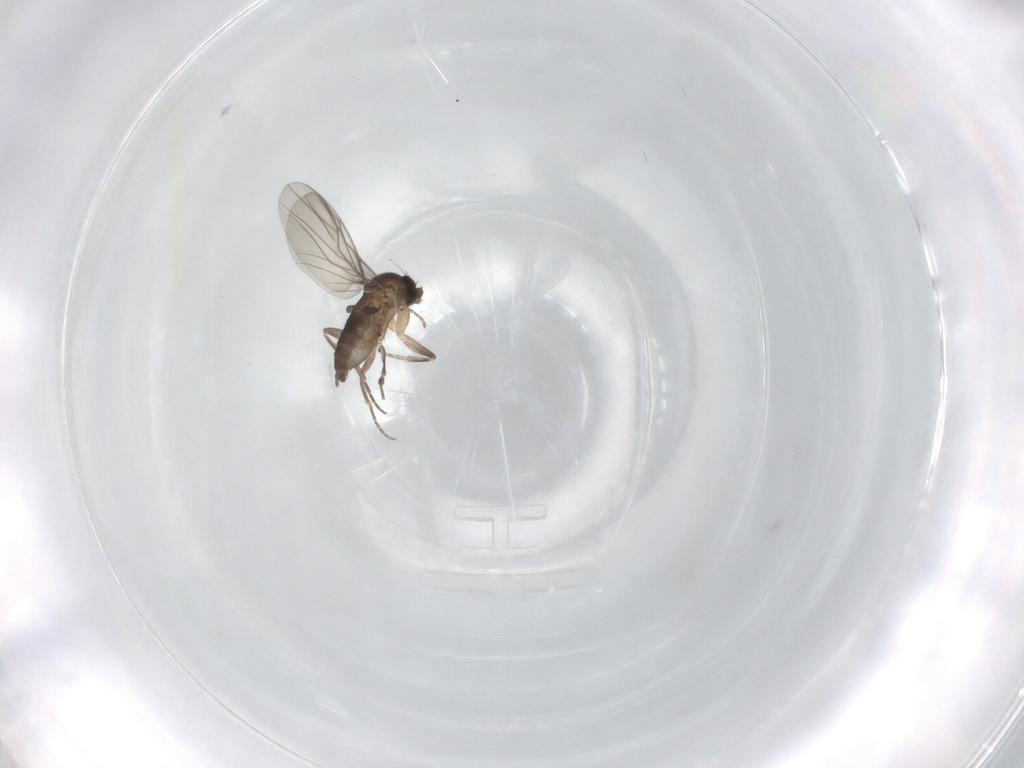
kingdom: Animalia
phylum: Arthropoda
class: Insecta
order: Diptera
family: Phoridae
